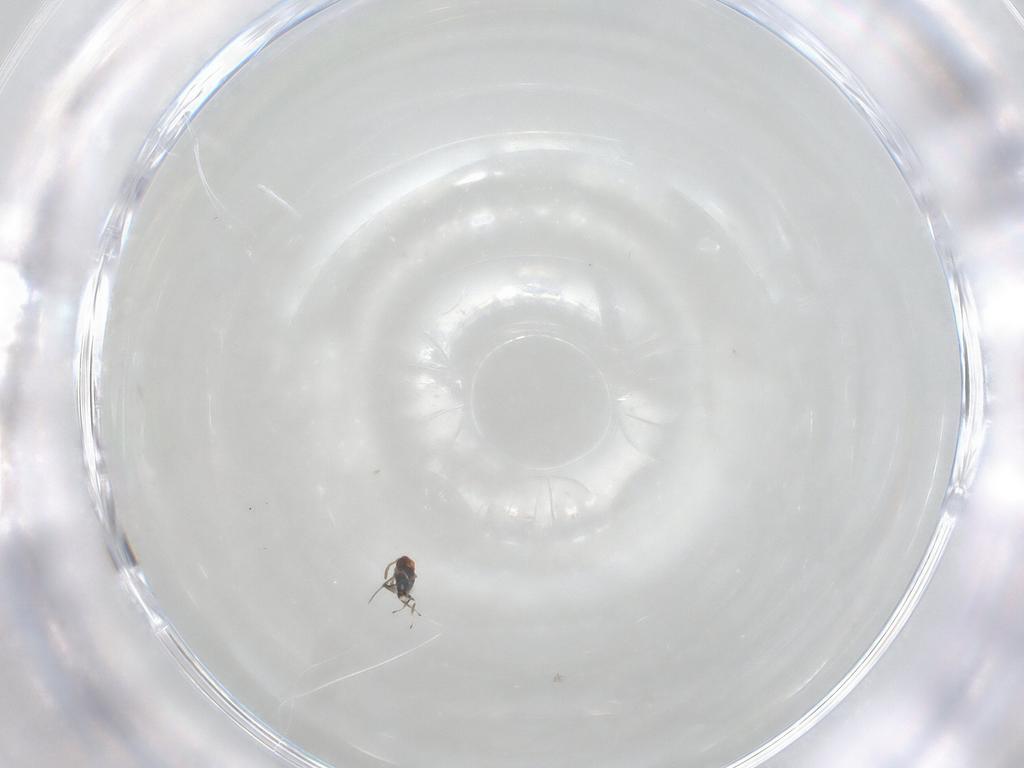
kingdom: Animalia
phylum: Arthropoda
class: Insecta
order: Hymenoptera
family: Azotidae
